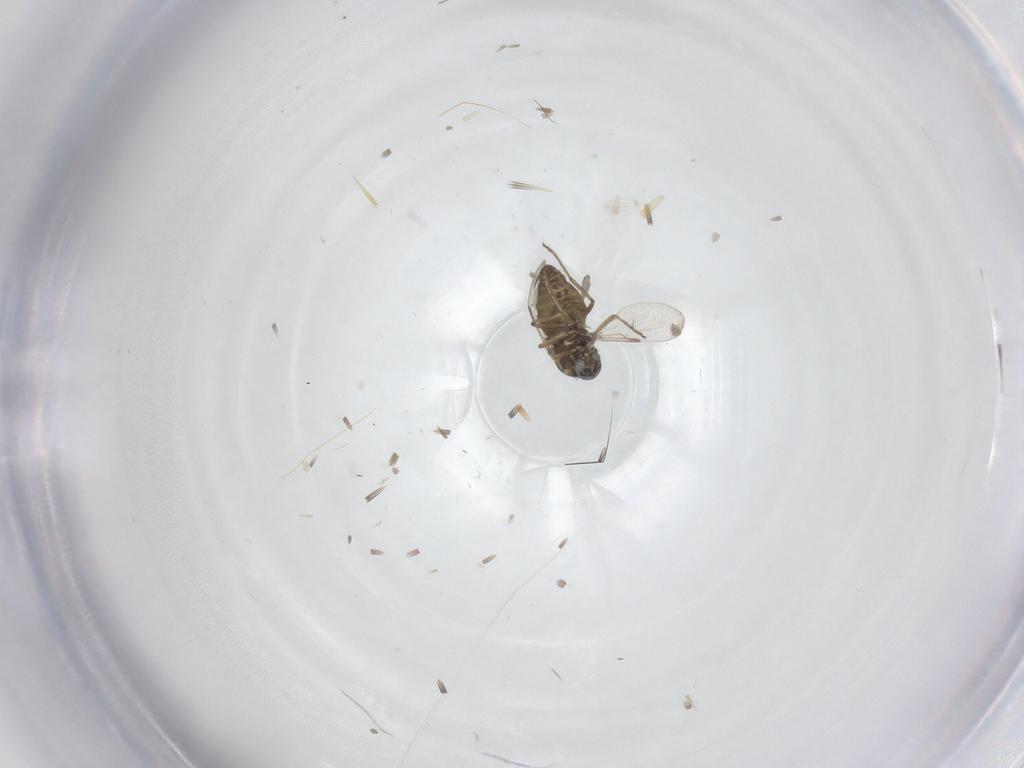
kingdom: Animalia
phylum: Arthropoda
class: Insecta
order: Diptera
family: Ceratopogonidae
